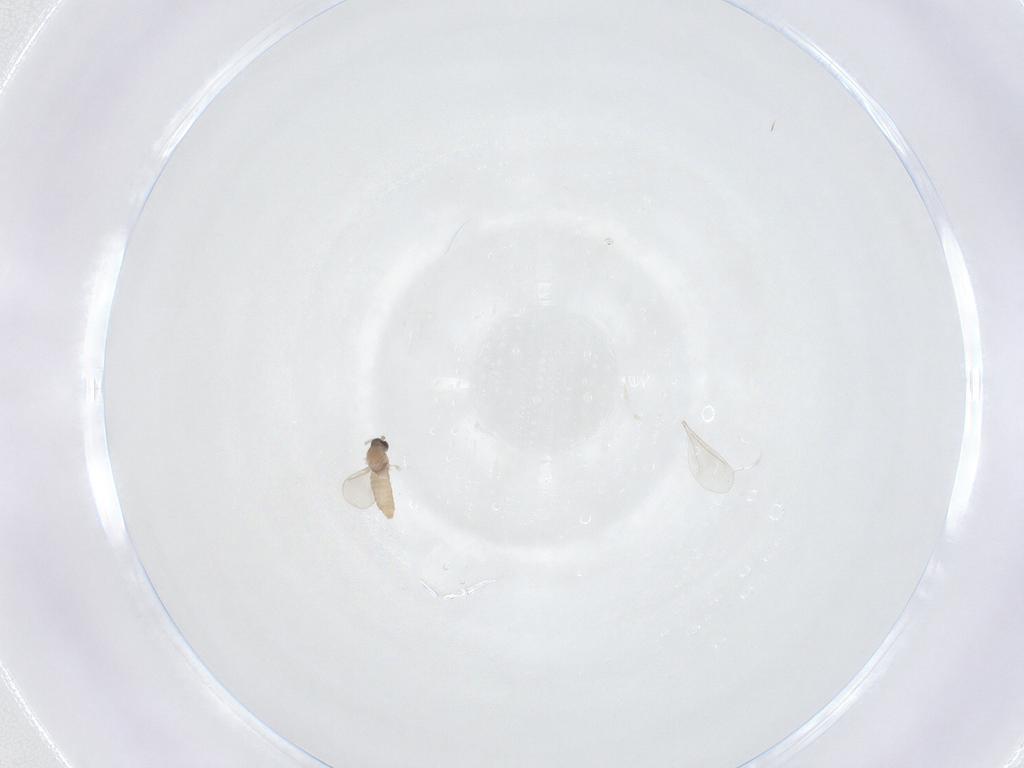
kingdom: Animalia
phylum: Arthropoda
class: Insecta
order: Diptera
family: Cecidomyiidae
